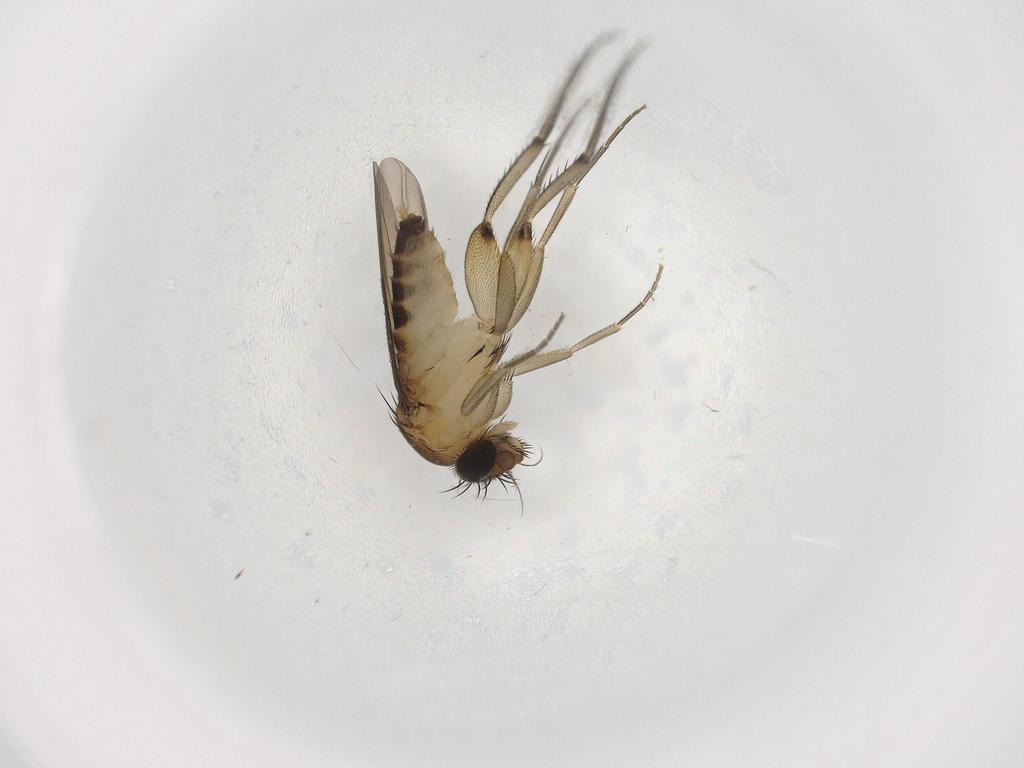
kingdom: Animalia
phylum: Arthropoda
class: Insecta
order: Diptera
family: Phoridae
